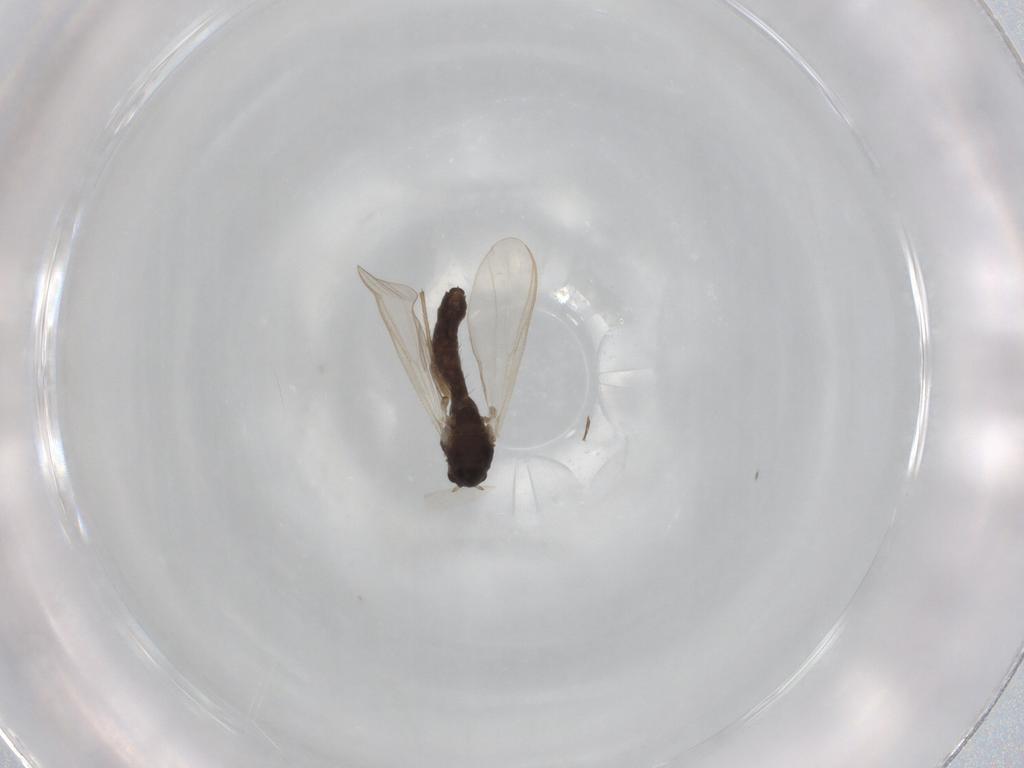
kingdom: Animalia
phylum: Arthropoda
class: Insecta
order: Diptera
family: Chironomidae
